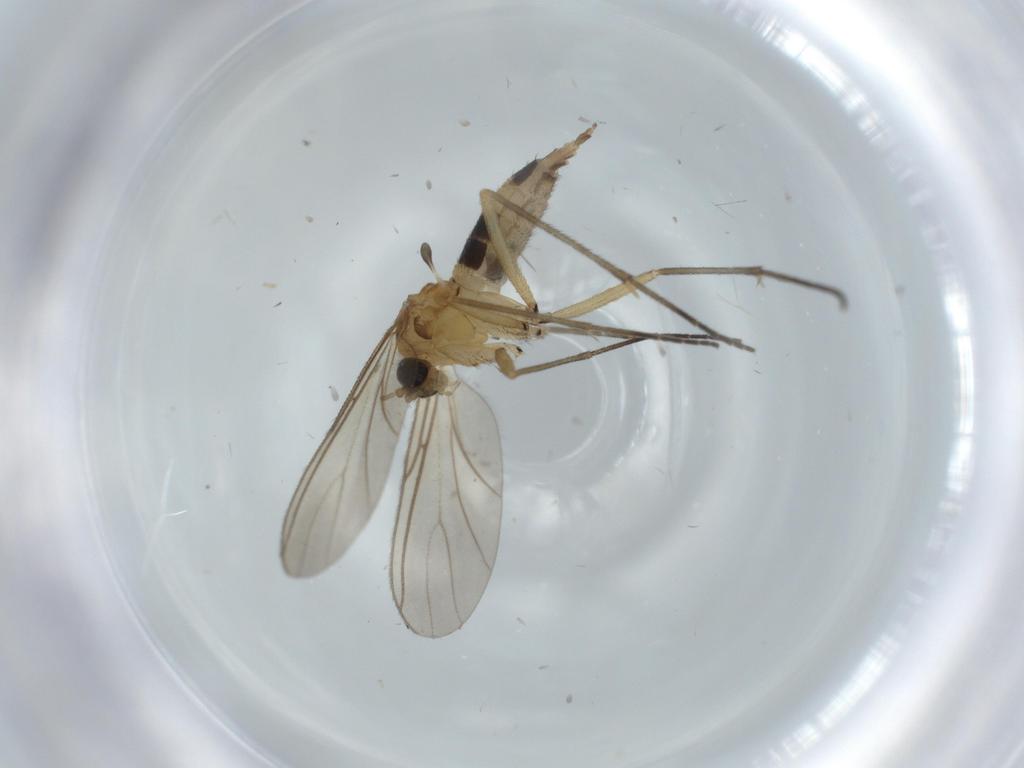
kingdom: Animalia
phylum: Arthropoda
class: Insecta
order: Diptera
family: Sciaridae
